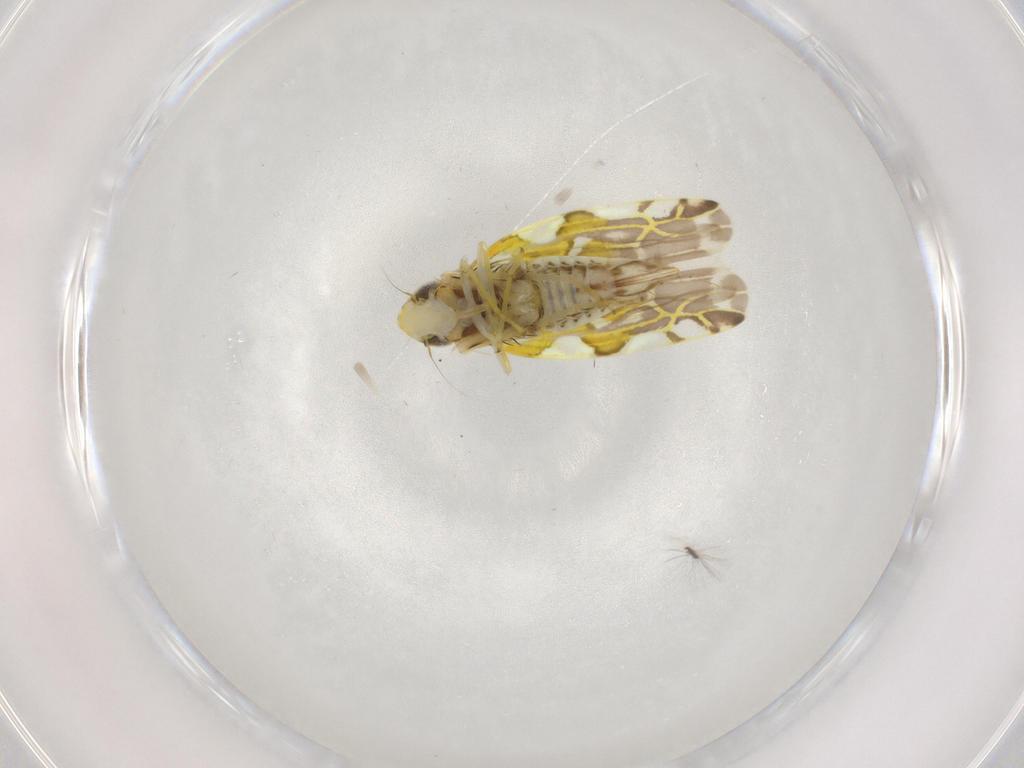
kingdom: Animalia
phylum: Arthropoda
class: Insecta
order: Hemiptera
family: Cicadellidae
